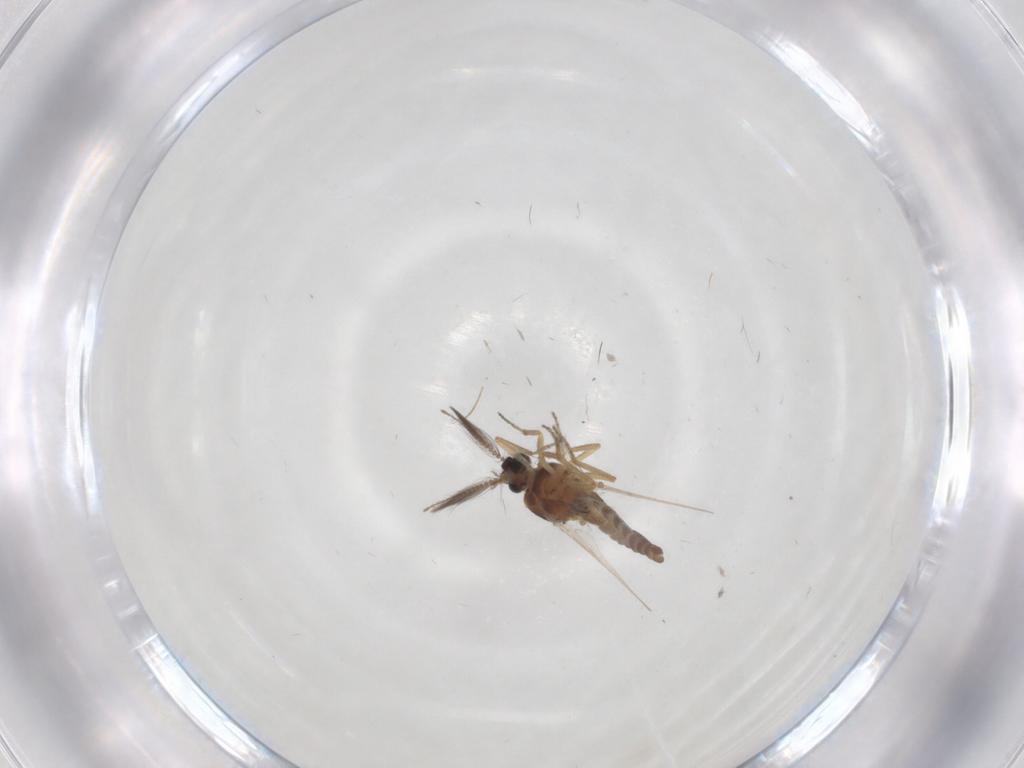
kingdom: Animalia
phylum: Arthropoda
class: Insecta
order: Diptera
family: Ceratopogonidae
